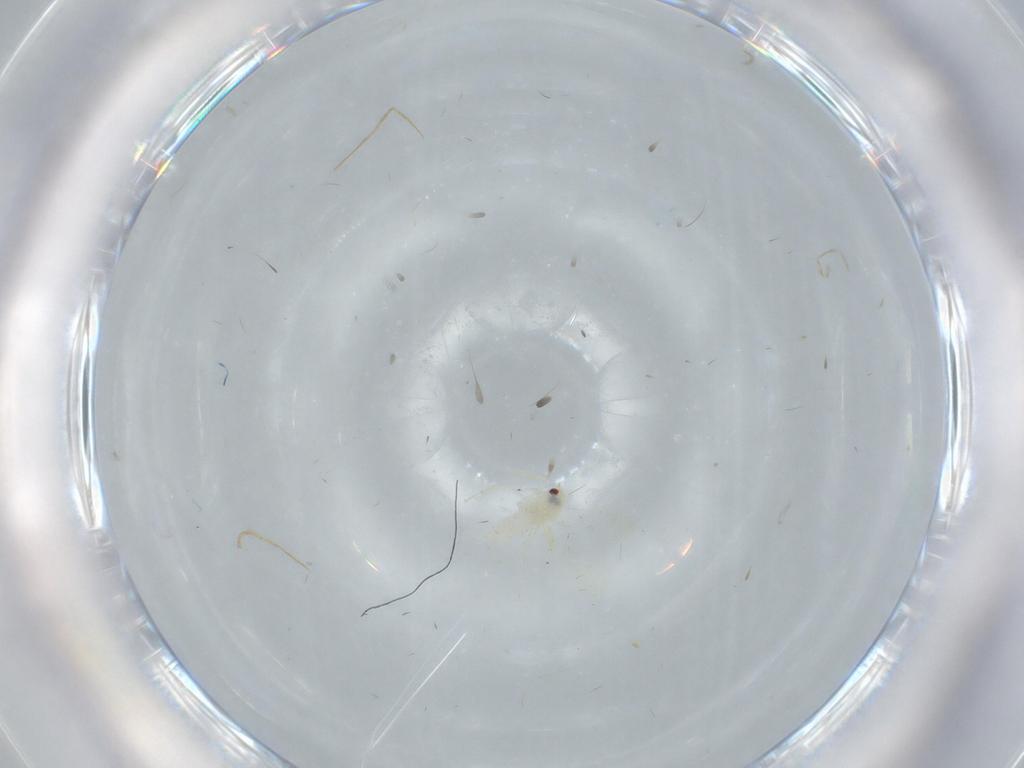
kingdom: Animalia
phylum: Arthropoda
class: Insecta
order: Hemiptera
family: Aleyrodidae
